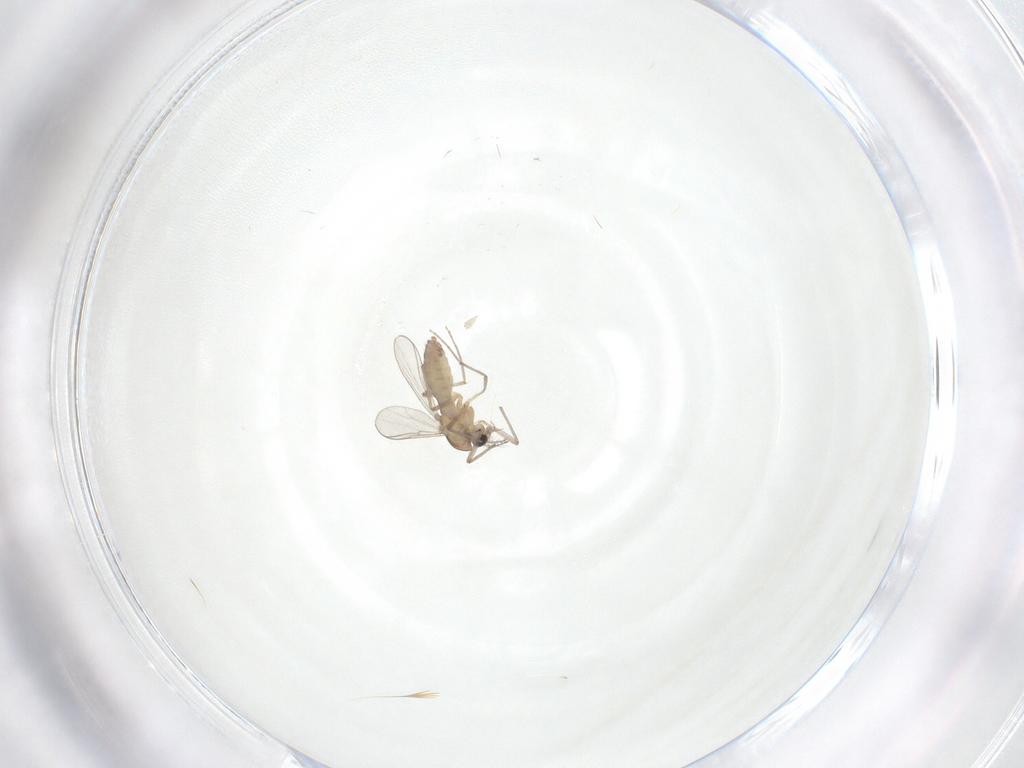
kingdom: Animalia
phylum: Arthropoda
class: Insecta
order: Diptera
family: Chironomidae
